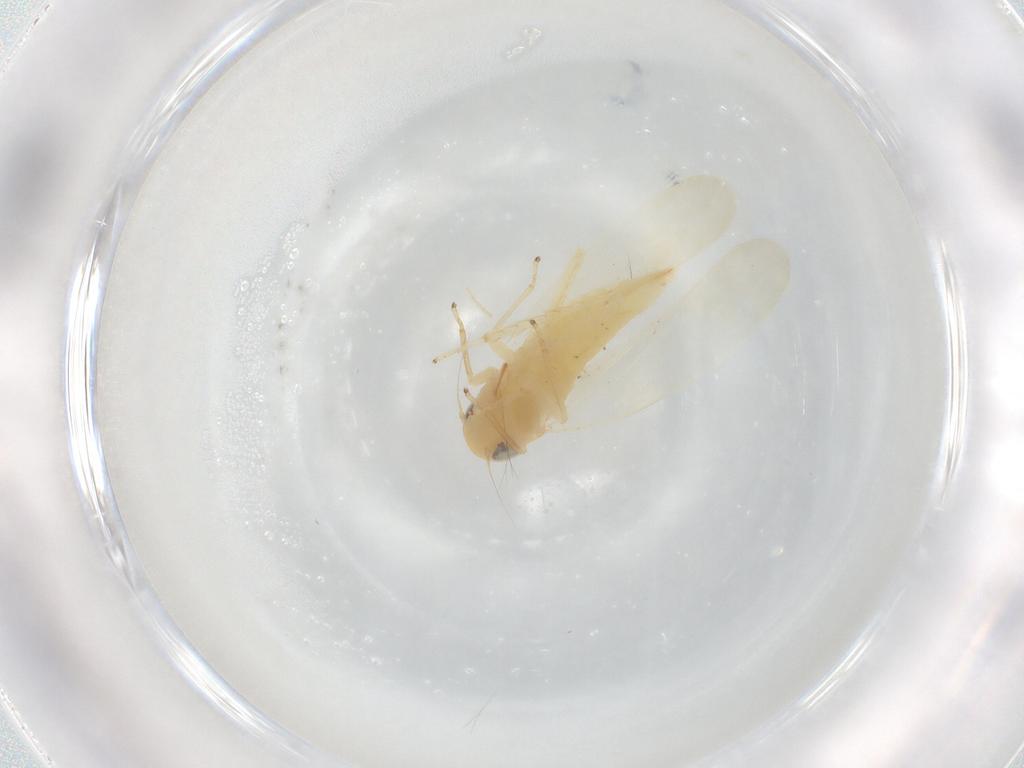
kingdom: Animalia
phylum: Arthropoda
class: Insecta
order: Hemiptera
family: Cicadellidae
